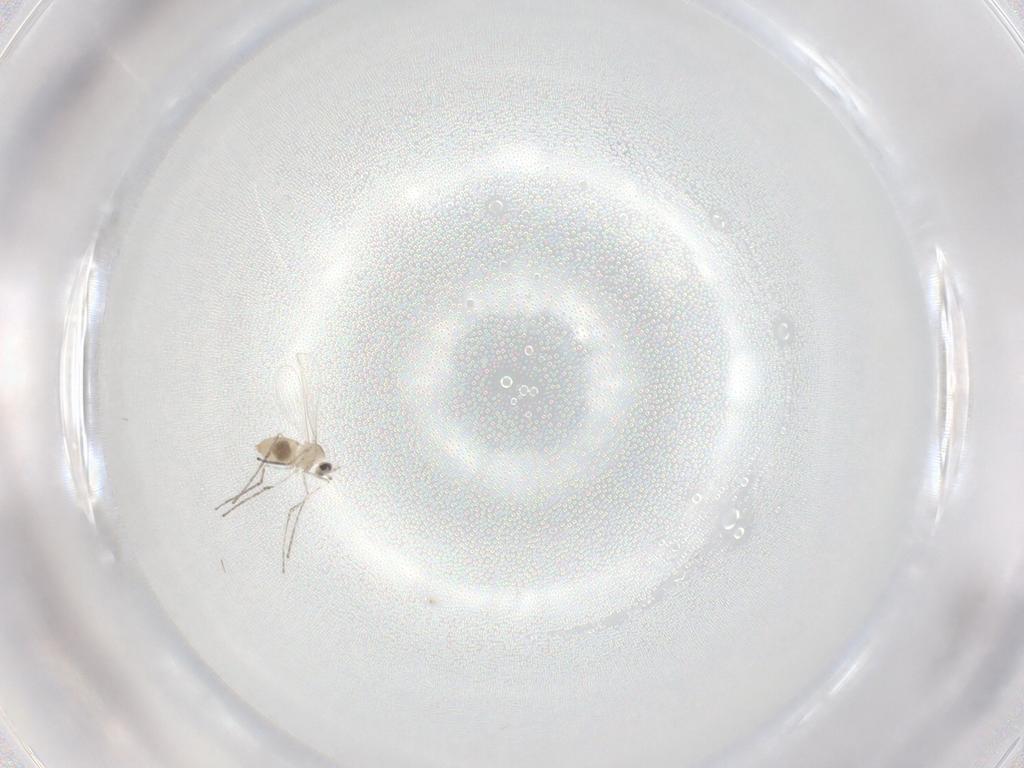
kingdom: Animalia
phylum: Arthropoda
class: Insecta
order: Diptera
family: Cecidomyiidae
